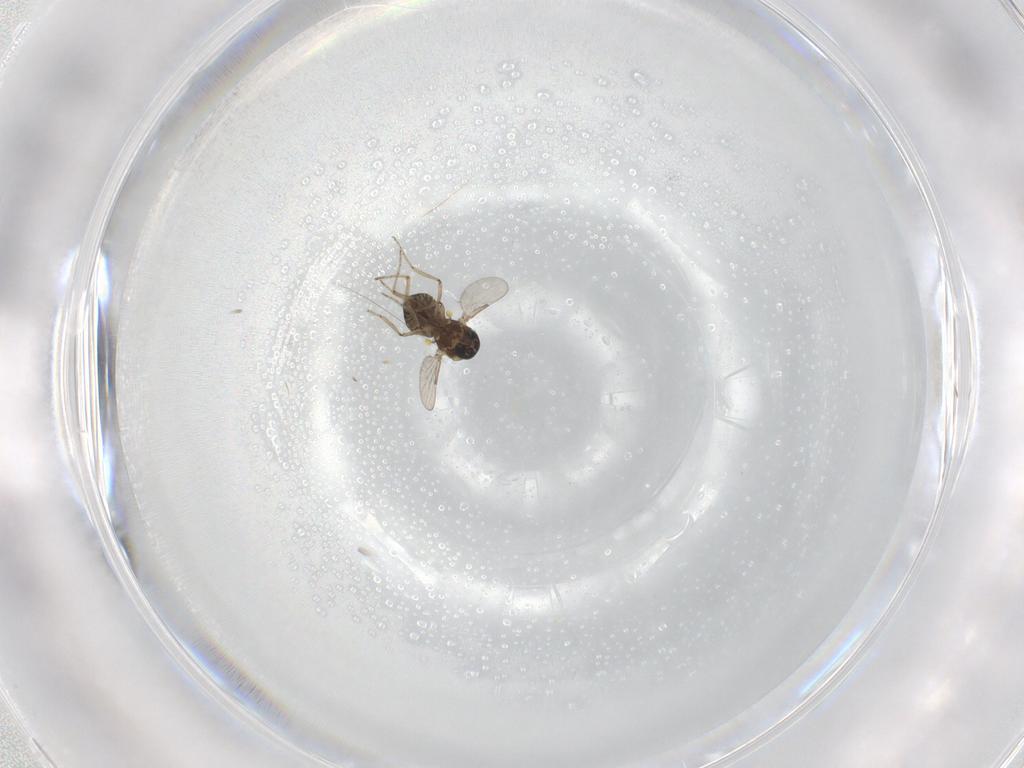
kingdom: Animalia
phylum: Arthropoda
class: Insecta
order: Diptera
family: Ceratopogonidae
